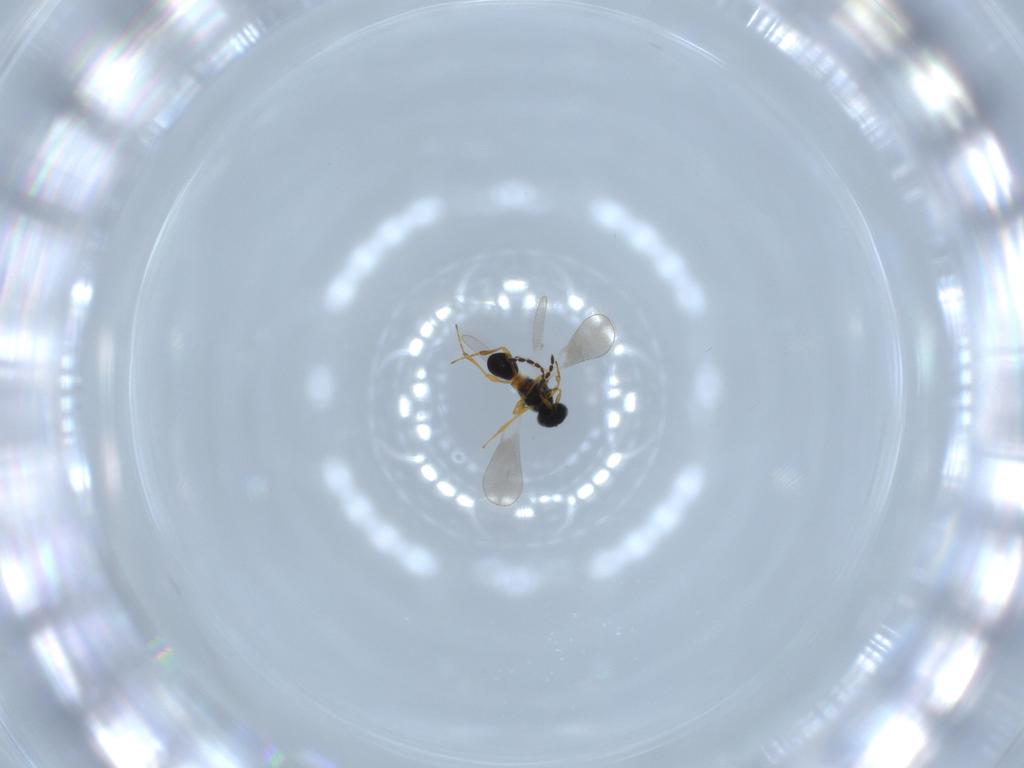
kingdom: Animalia
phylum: Arthropoda
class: Insecta
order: Hymenoptera
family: Platygastridae
